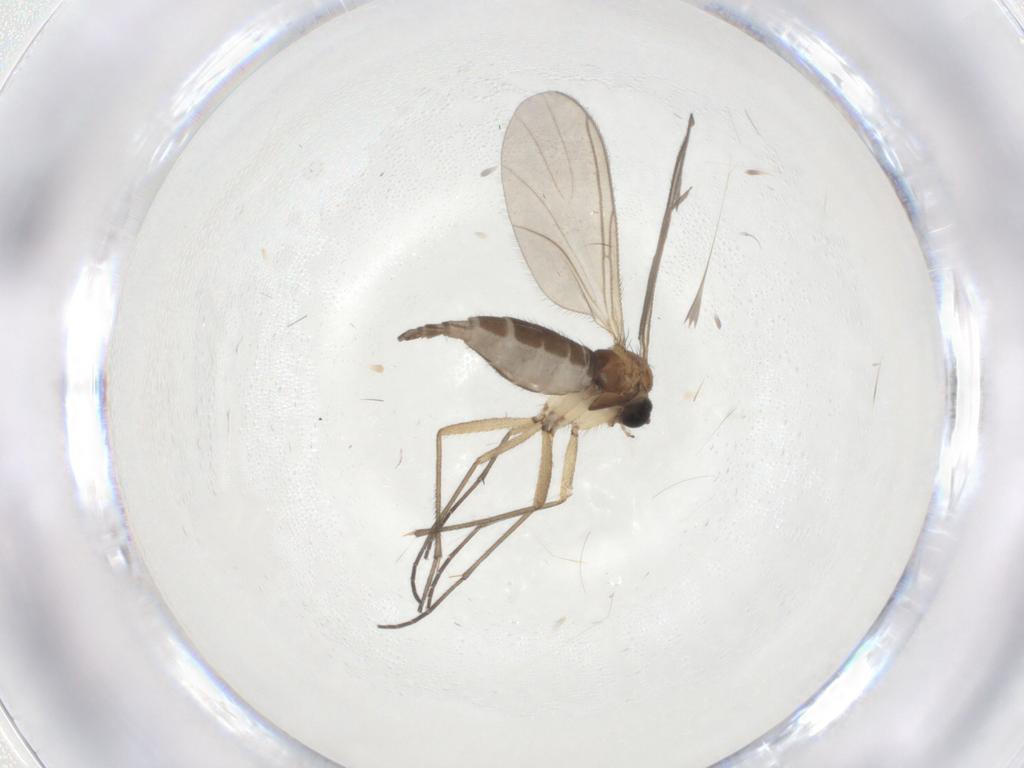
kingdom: Animalia
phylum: Arthropoda
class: Insecta
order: Diptera
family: Sciaridae
